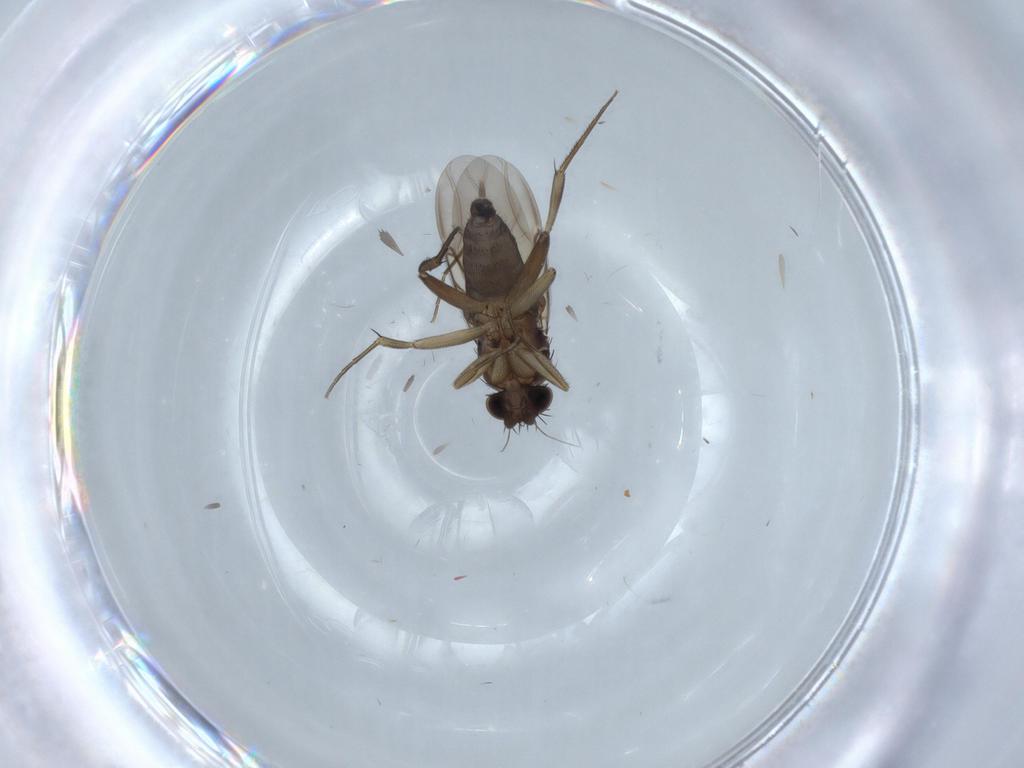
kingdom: Animalia
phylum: Arthropoda
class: Insecta
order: Diptera
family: Phoridae
